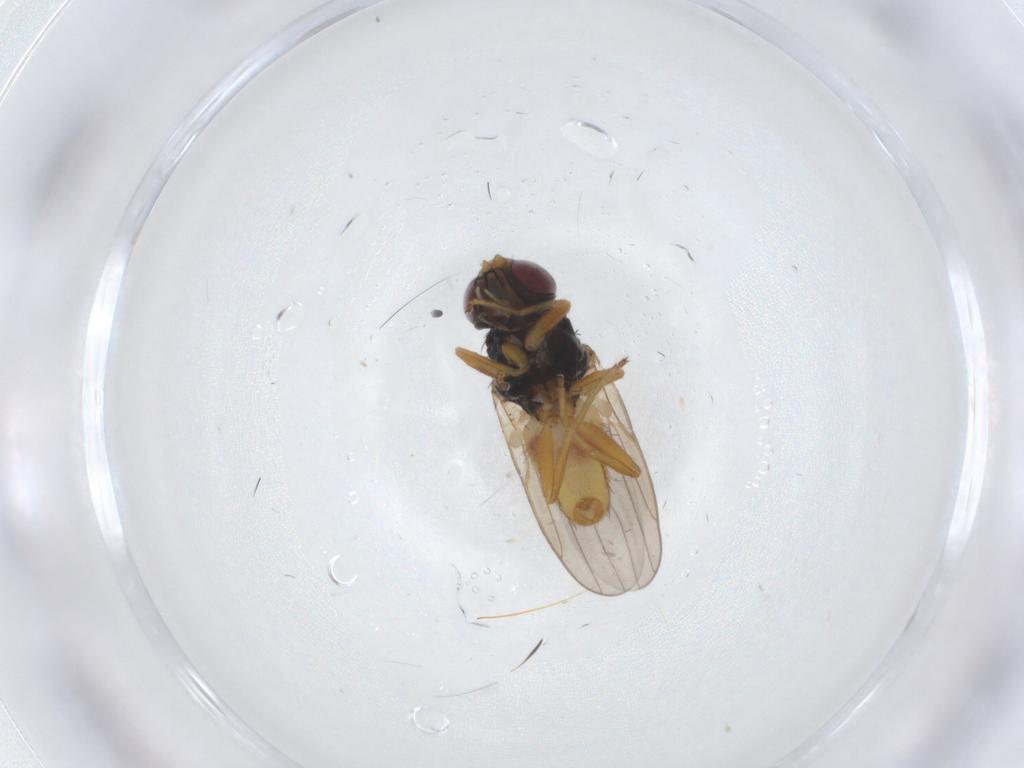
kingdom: Animalia
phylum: Arthropoda
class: Insecta
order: Diptera
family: Chloropidae
